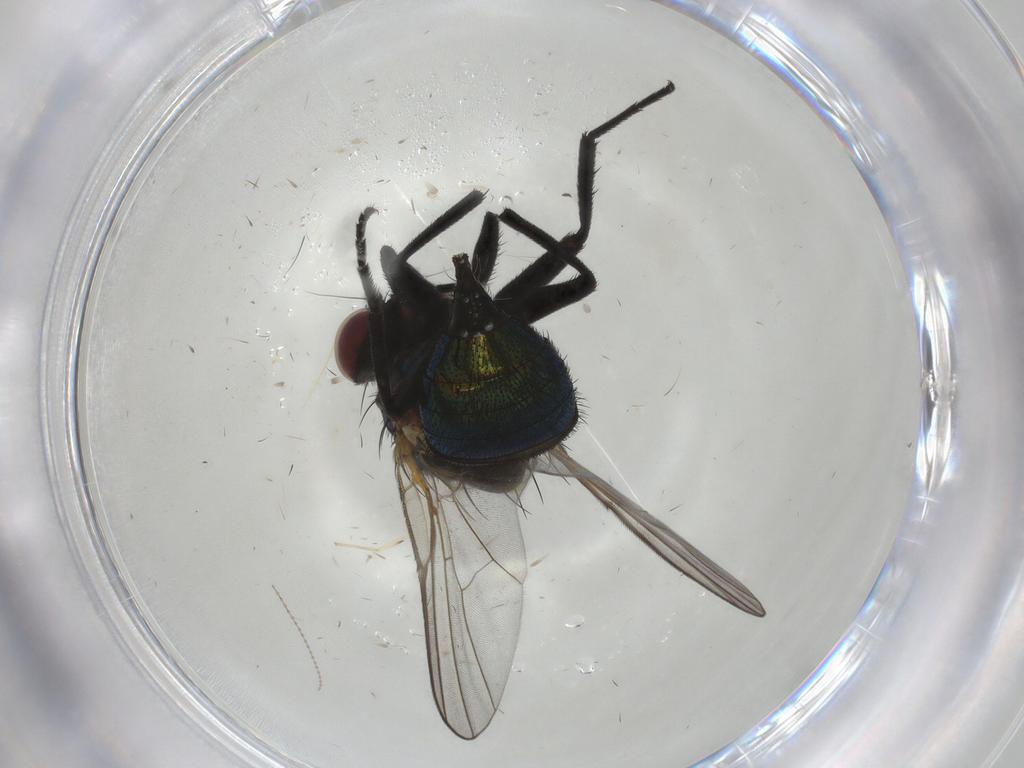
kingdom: Animalia
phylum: Arthropoda
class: Insecta
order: Diptera
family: Agromyzidae
